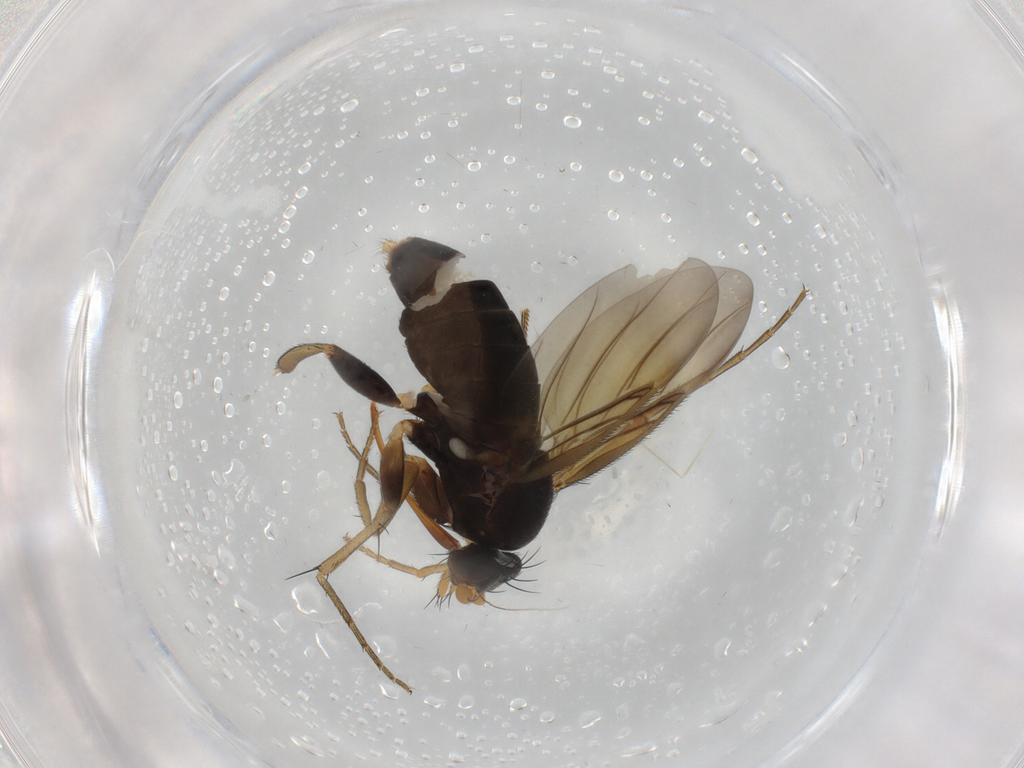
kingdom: Animalia
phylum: Arthropoda
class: Insecta
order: Diptera
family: Phoridae
